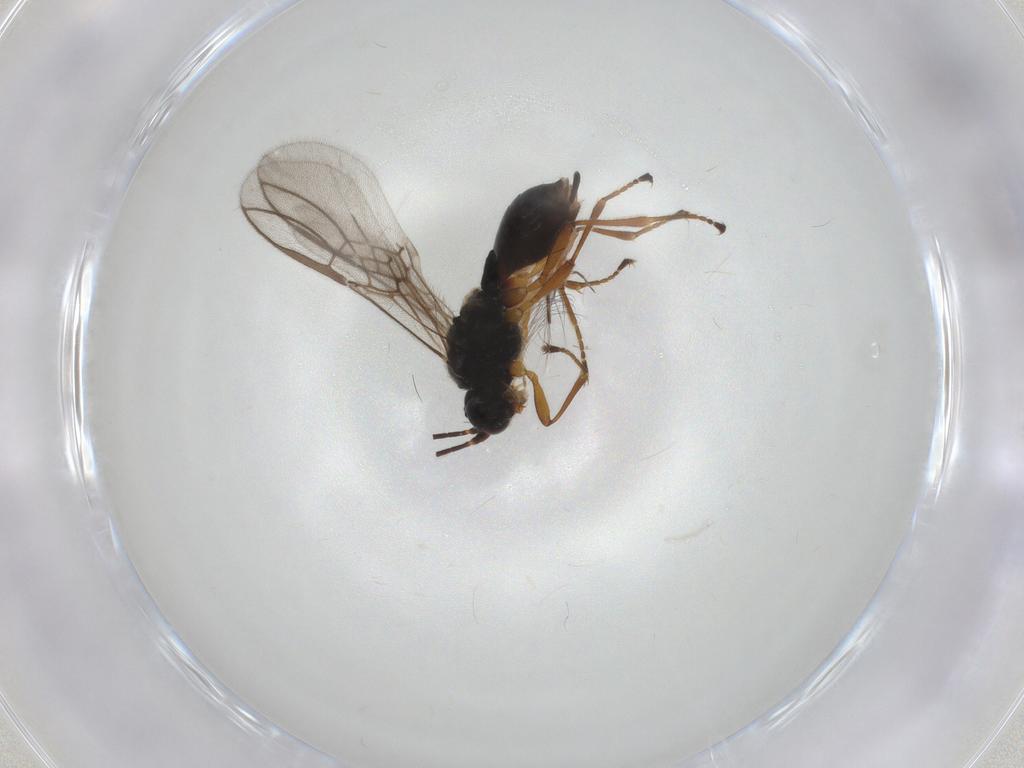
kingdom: Animalia
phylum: Arthropoda
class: Insecta
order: Hymenoptera
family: Braconidae
